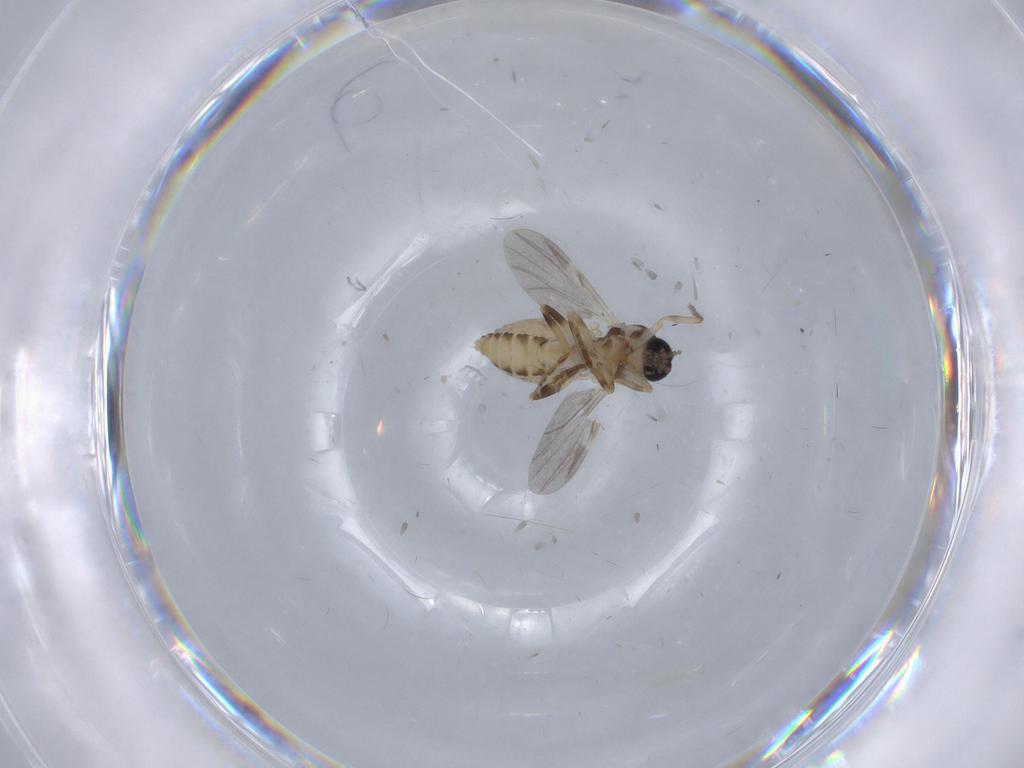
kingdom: Animalia
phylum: Arthropoda
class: Insecta
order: Diptera
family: Ceratopogonidae
